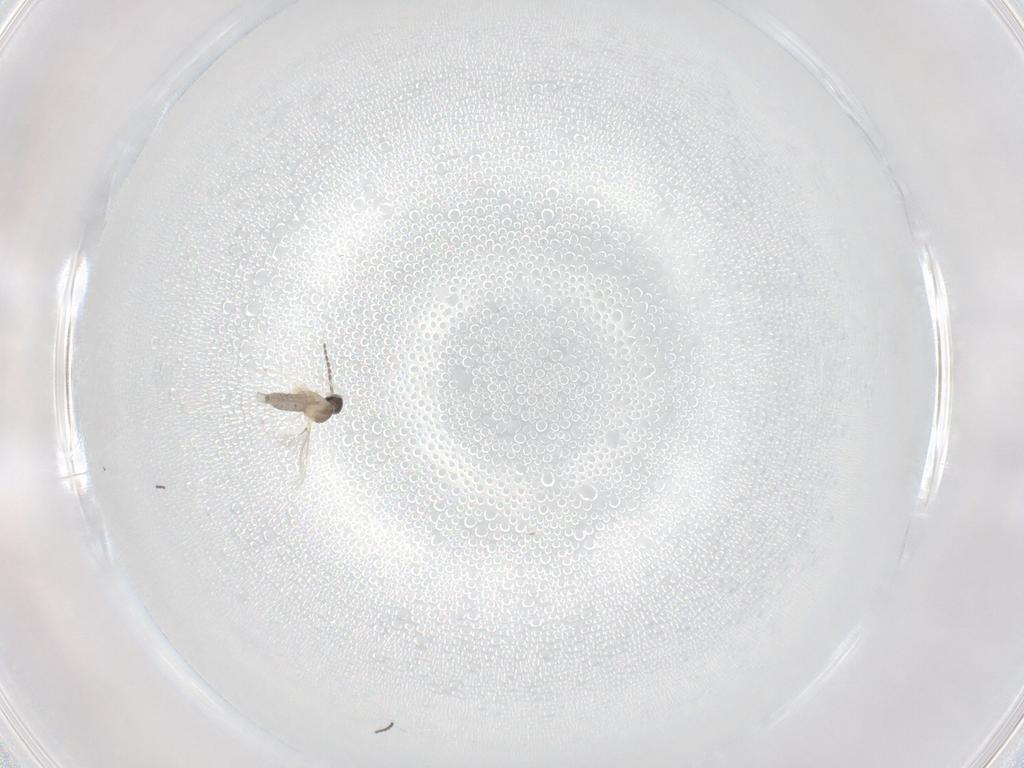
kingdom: Animalia
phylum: Arthropoda
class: Insecta
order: Diptera
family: Cecidomyiidae
